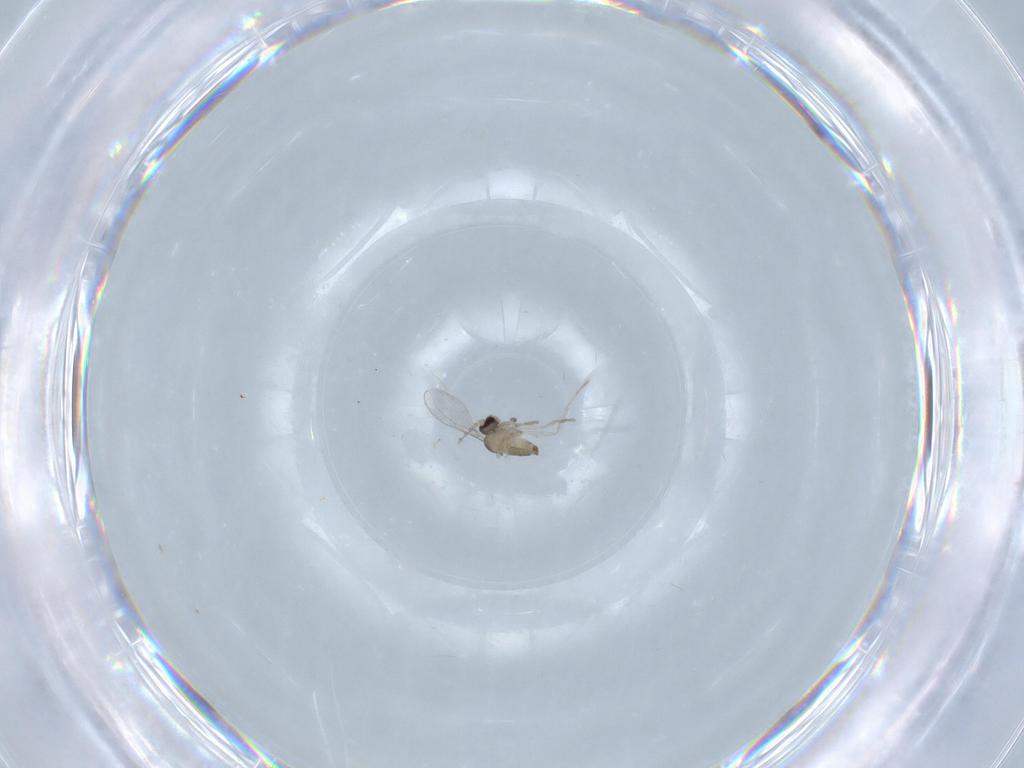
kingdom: Animalia
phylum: Arthropoda
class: Insecta
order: Diptera
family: Cecidomyiidae
